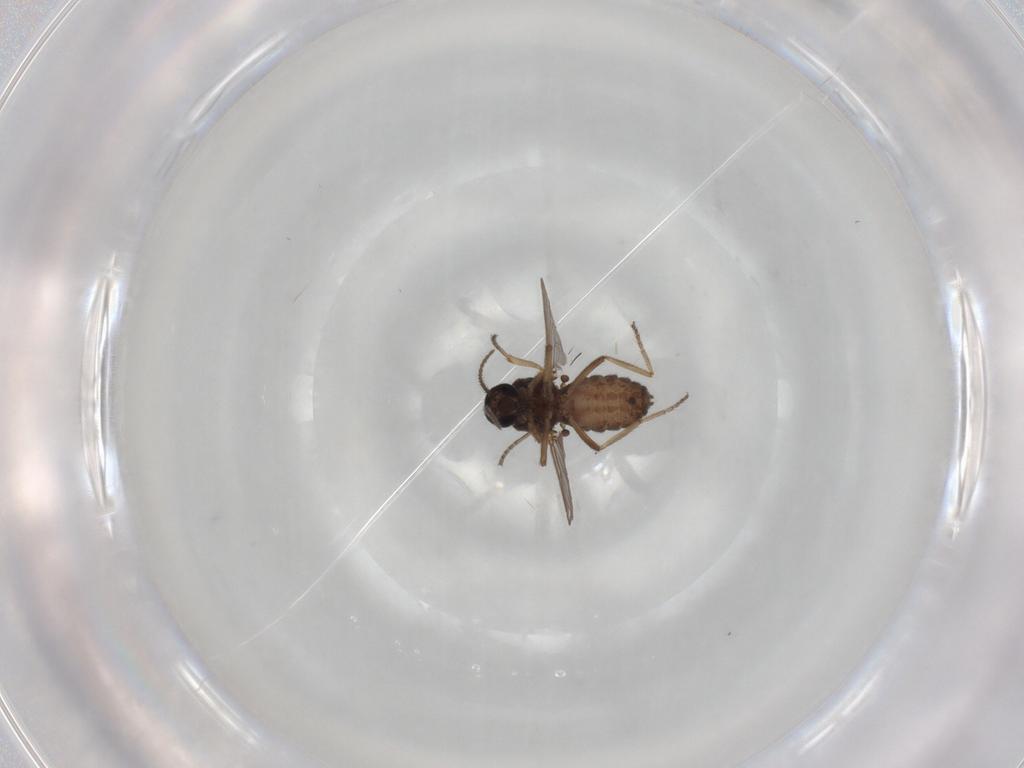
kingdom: Animalia
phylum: Arthropoda
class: Insecta
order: Diptera
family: Ceratopogonidae
